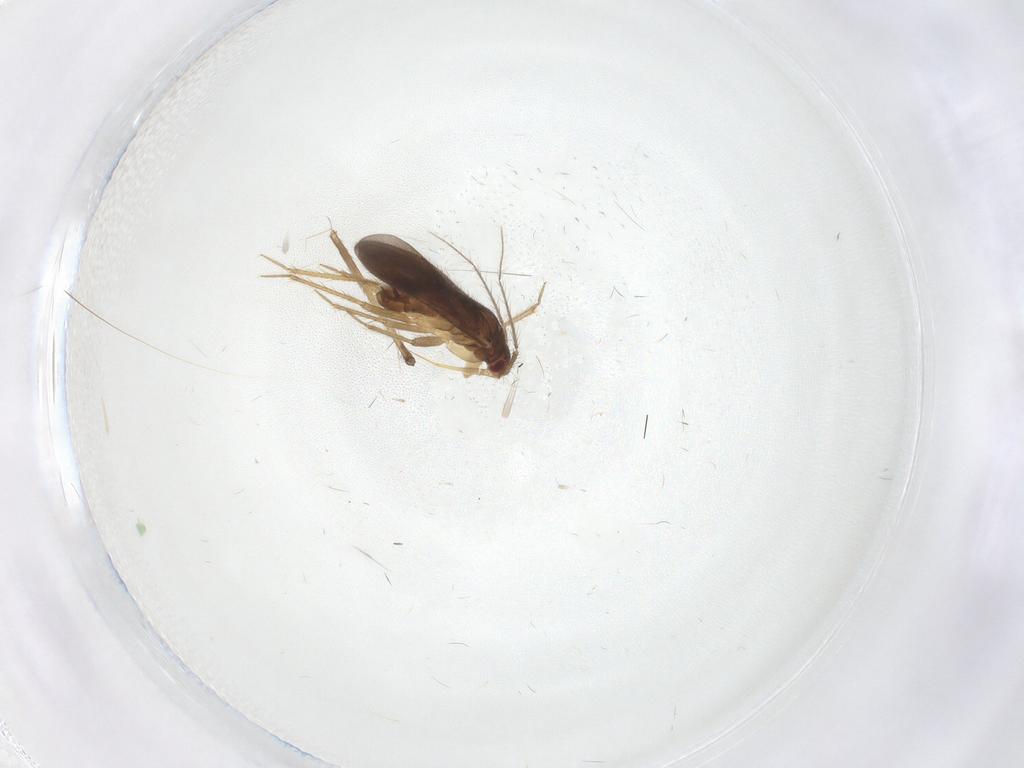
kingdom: Animalia
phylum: Arthropoda
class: Insecta
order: Hemiptera
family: Ceratocombidae
